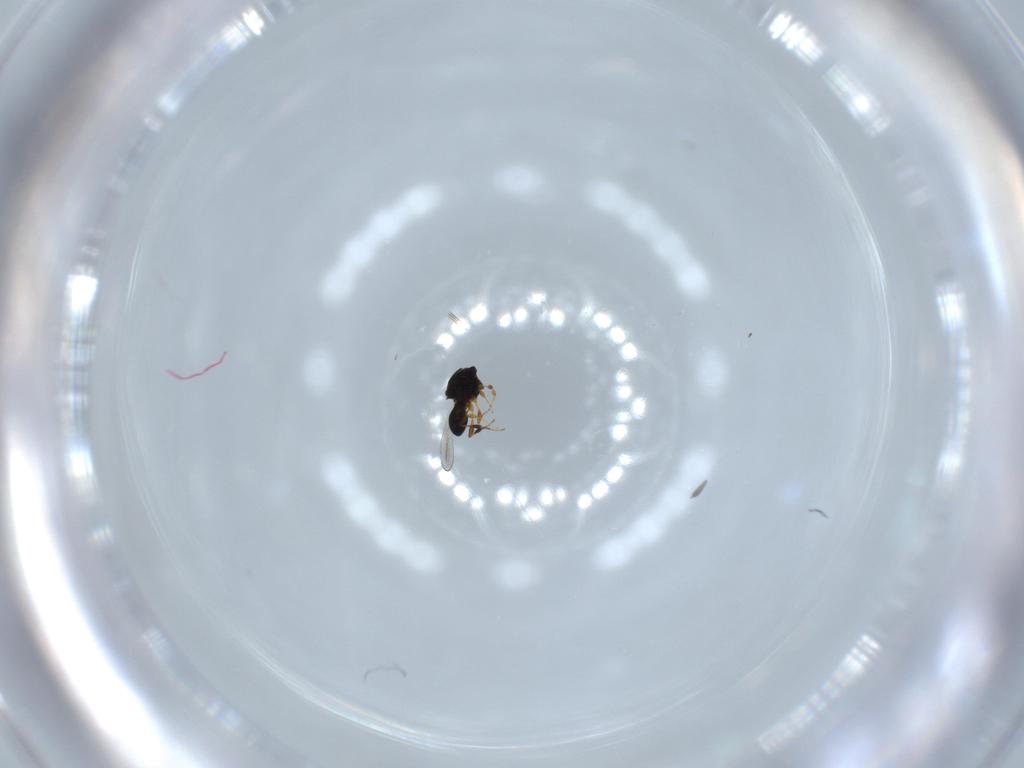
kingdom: Animalia
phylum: Arthropoda
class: Insecta
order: Hymenoptera
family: Platygastridae
